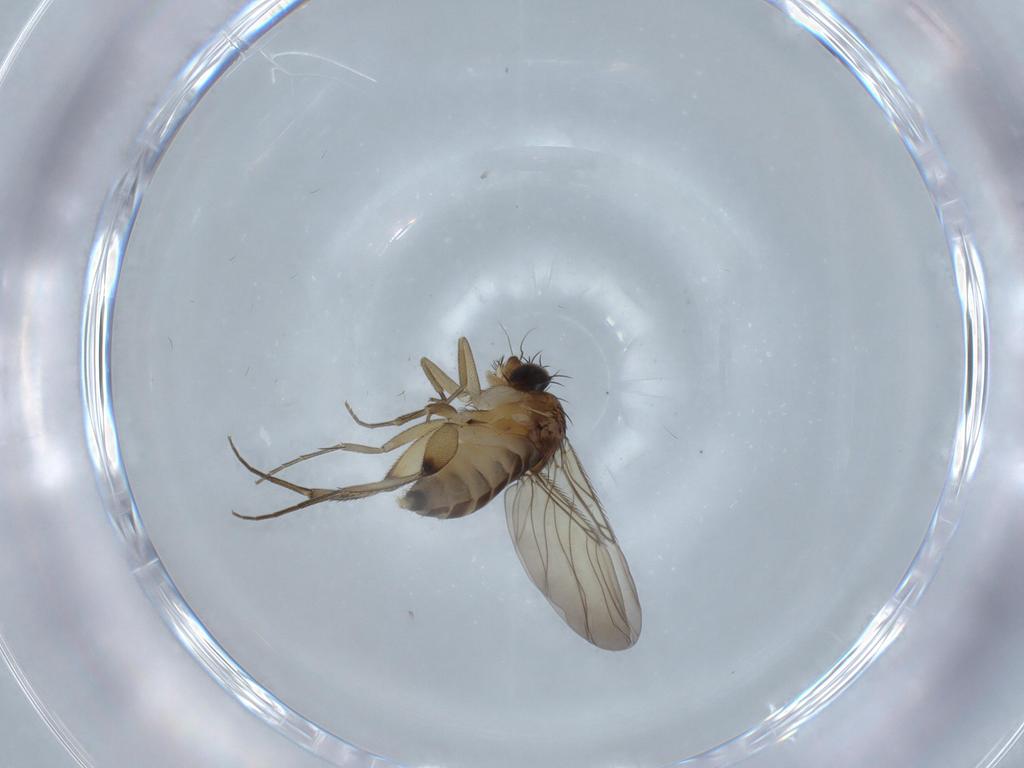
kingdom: Animalia
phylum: Arthropoda
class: Insecta
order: Diptera
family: Phoridae
